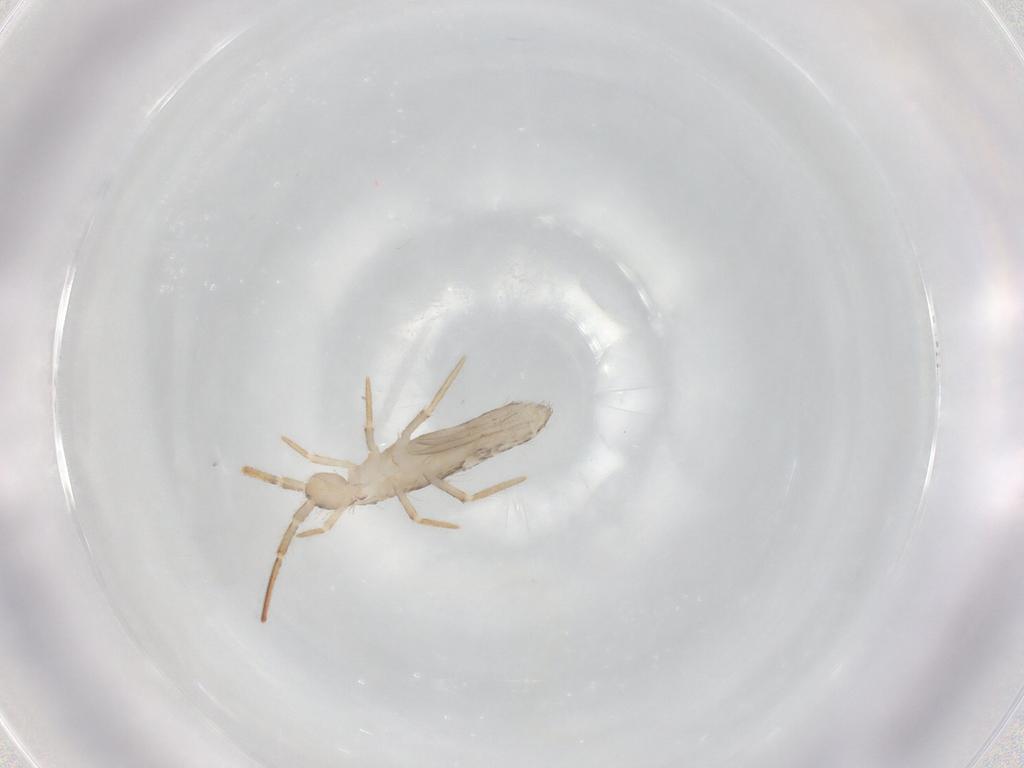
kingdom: Animalia
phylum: Arthropoda
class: Collembola
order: Entomobryomorpha
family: Entomobryidae
